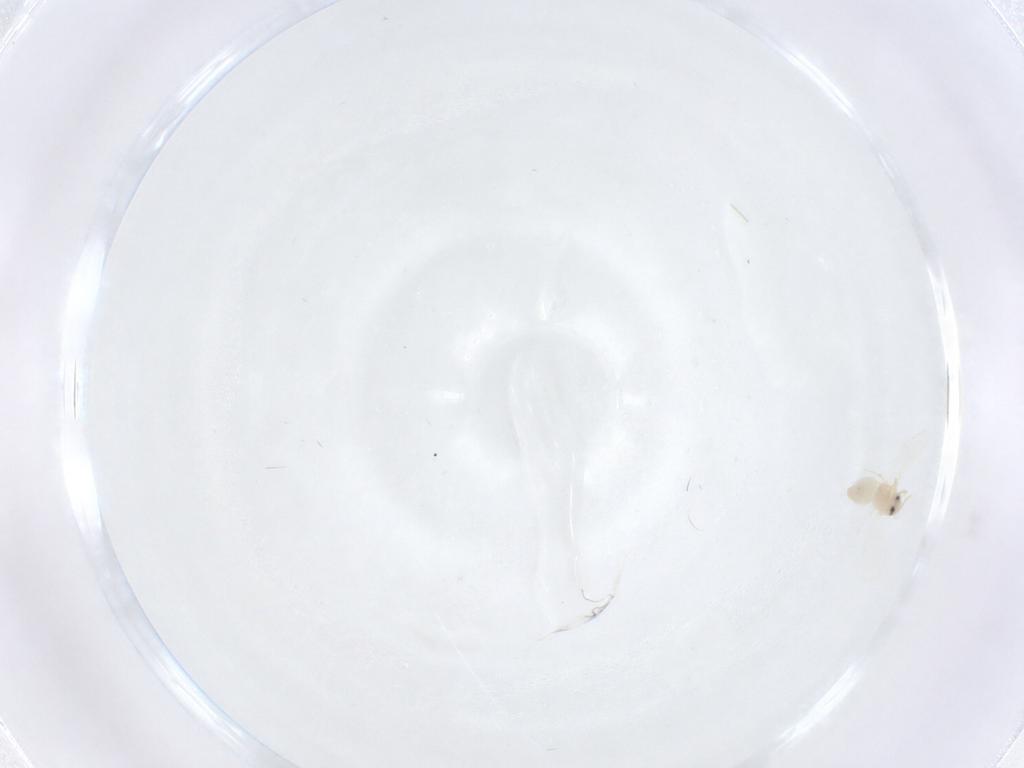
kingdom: Animalia
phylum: Arthropoda
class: Insecta
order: Hemiptera
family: Aleyrodidae
